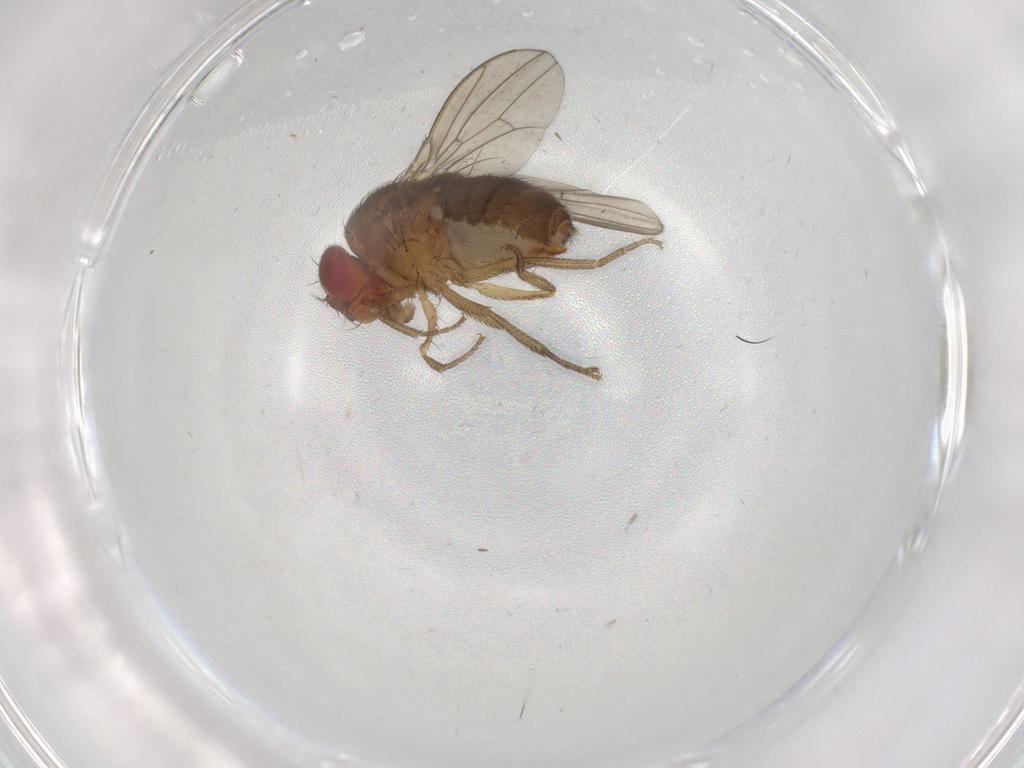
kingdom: Animalia
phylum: Arthropoda
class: Insecta
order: Diptera
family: Drosophilidae
